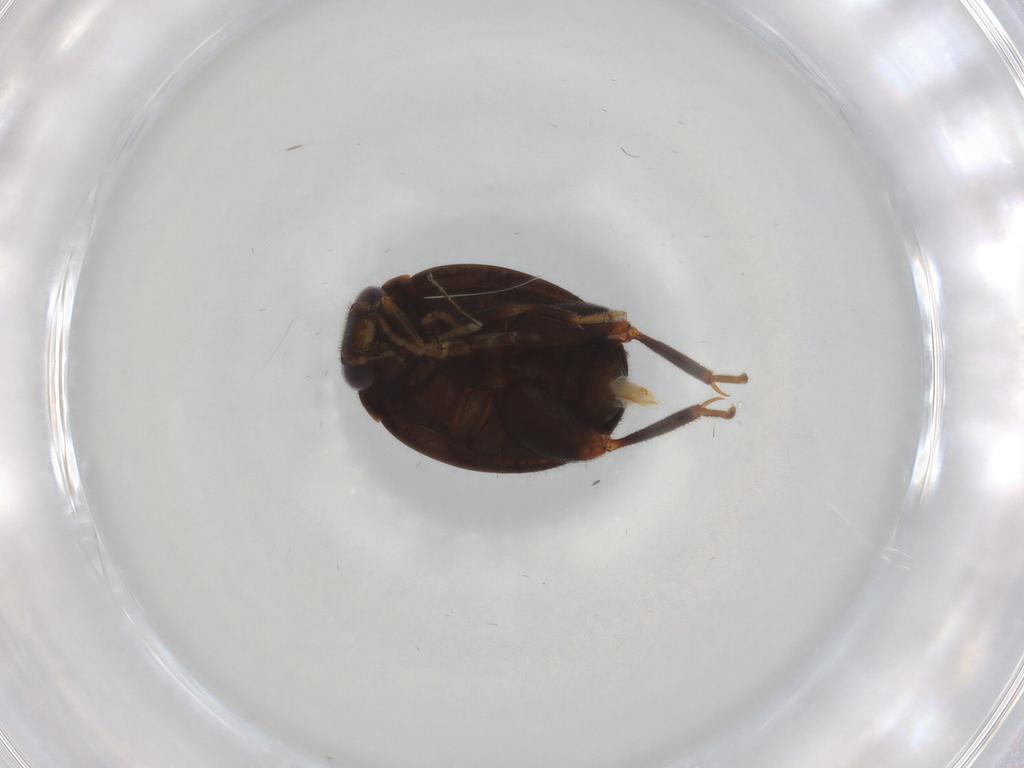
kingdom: Animalia
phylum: Arthropoda
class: Insecta
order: Coleoptera
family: Scirtidae
